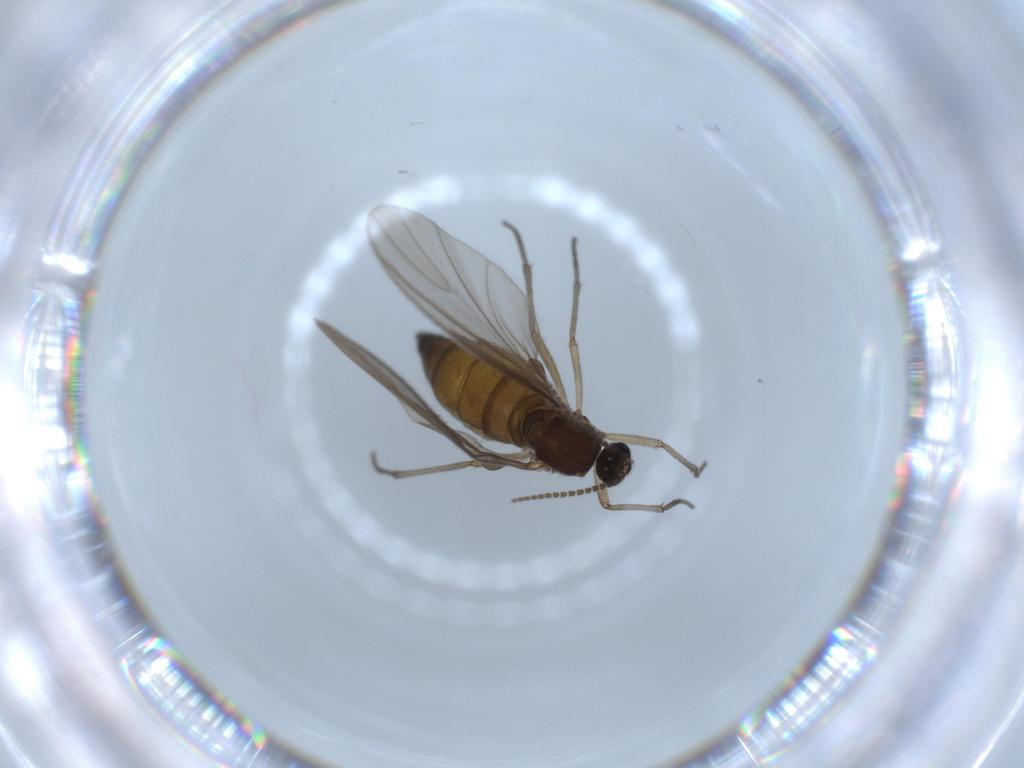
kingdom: Animalia
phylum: Arthropoda
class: Insecta
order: Diptera
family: Sciaridae
